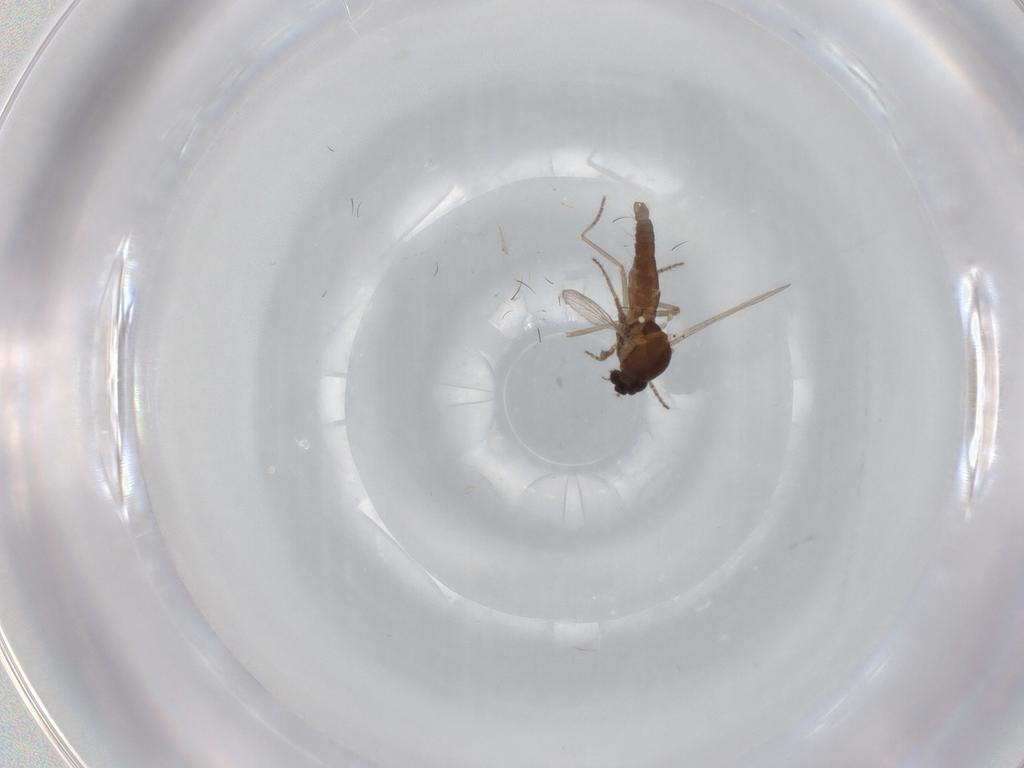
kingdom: Animalia
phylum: Arthropoda
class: Insecta
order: Diptera
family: Ceratopogonidae
